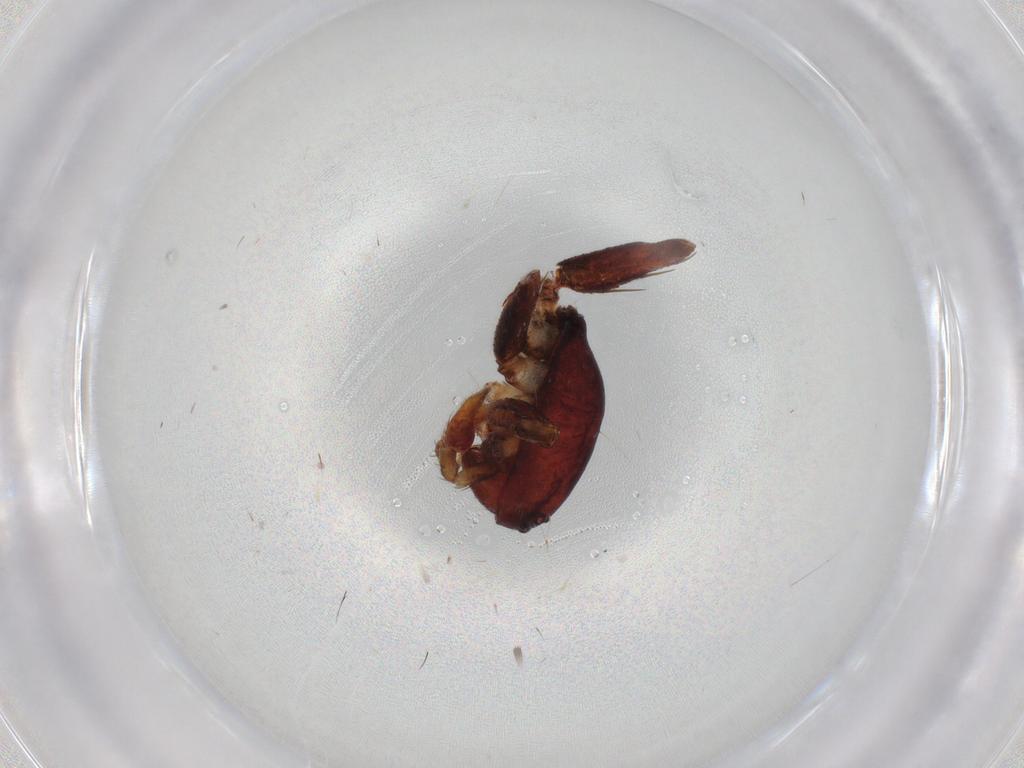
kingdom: Animalia
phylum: Arthropoda
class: Arachnida
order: Araneae
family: Corinnidae
